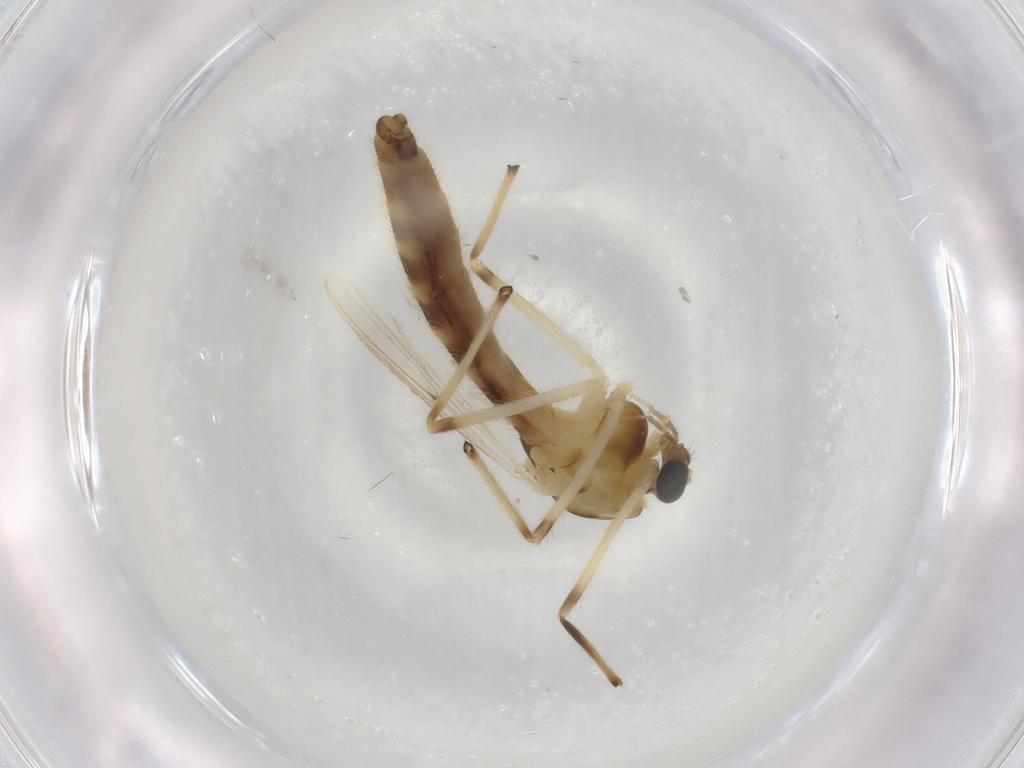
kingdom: Animalia
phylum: Arthropoda
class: Insecta
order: Diptera
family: Chironomidae
